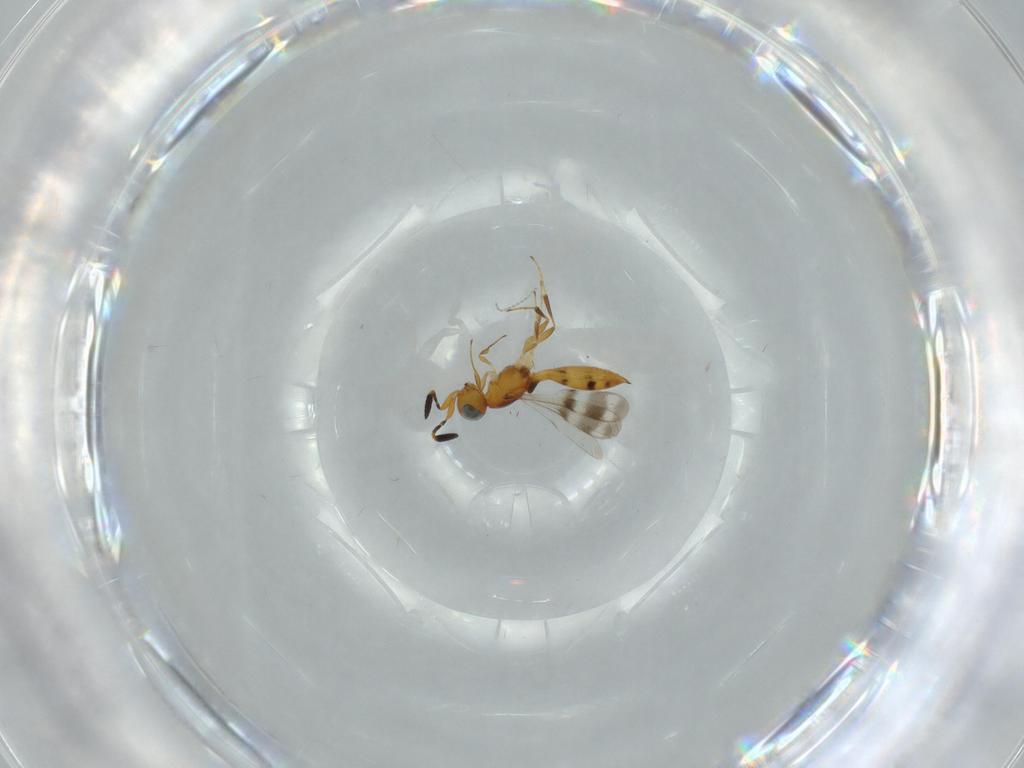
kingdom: Animalia
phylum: Arthropoda
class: Insecta
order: Hymenoptera
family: Scelionidae
